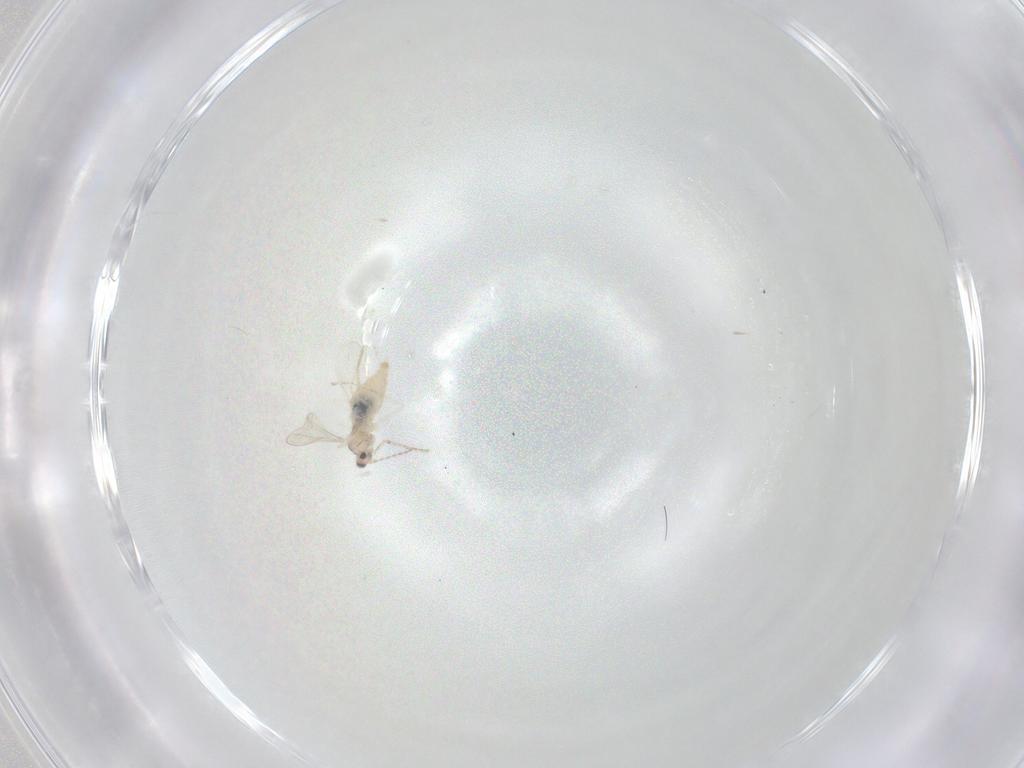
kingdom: Animalia
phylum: Arthropoda
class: Insecta
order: Diptera
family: Cecidomyiidae
